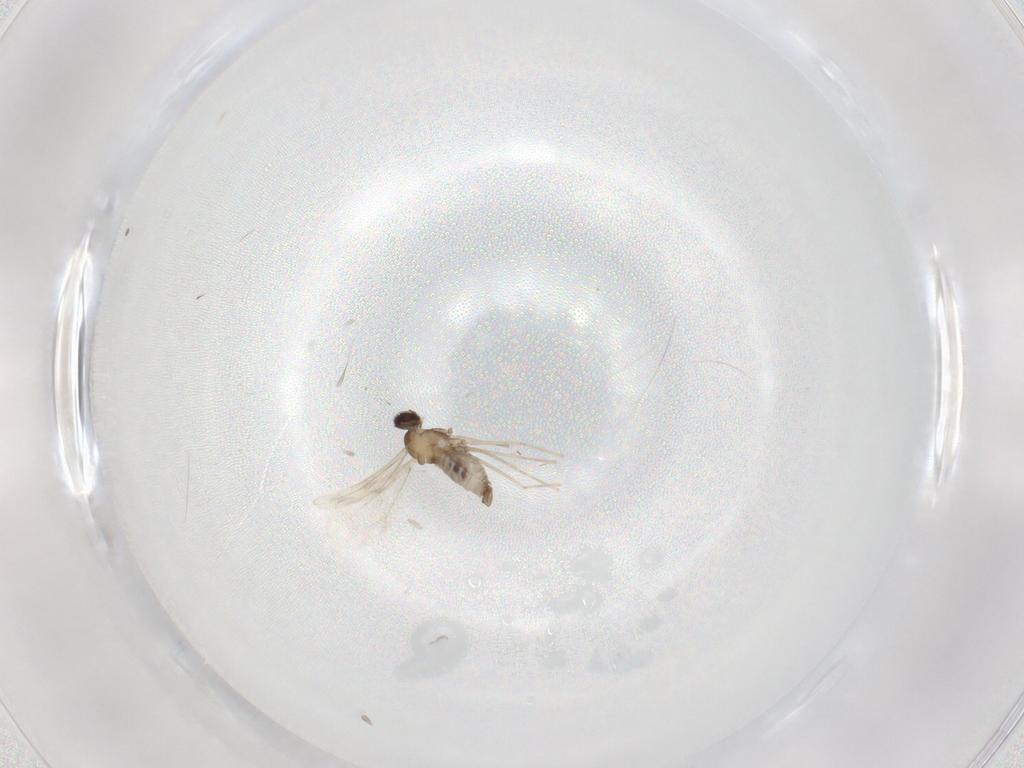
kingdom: Animalia
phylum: Arthropoda
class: Insecta
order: Diptera
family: Cecidomyiidae
